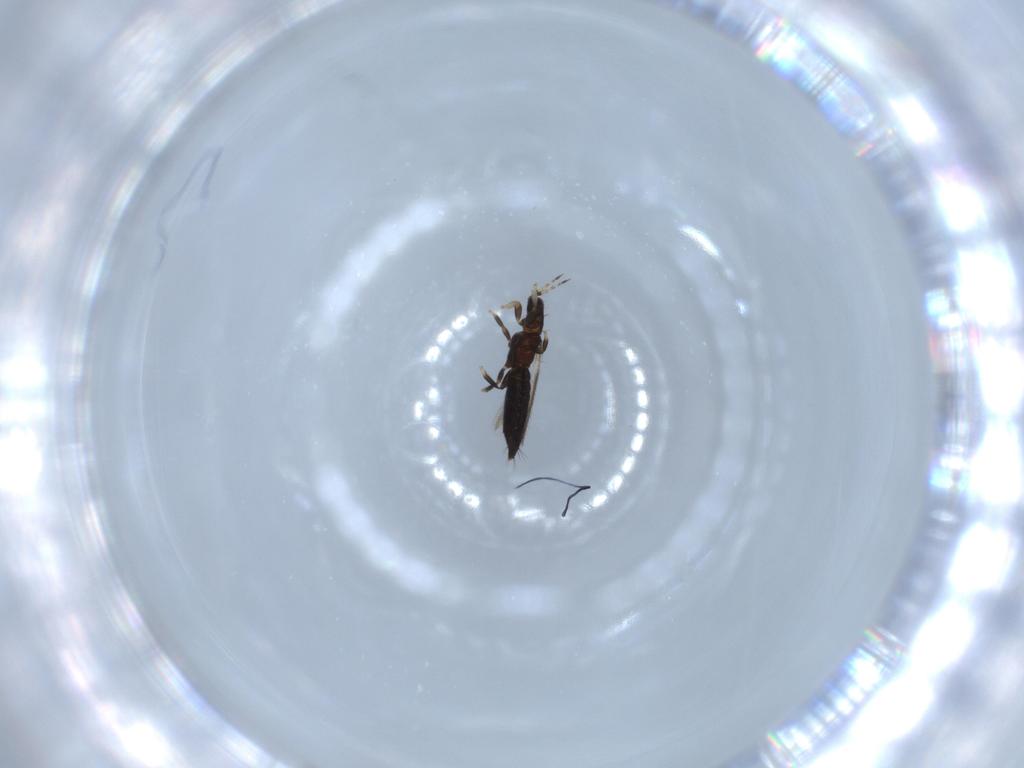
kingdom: Animalia
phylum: Arthropoda
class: Insecta
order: Thysanoptera
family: Thripidae
